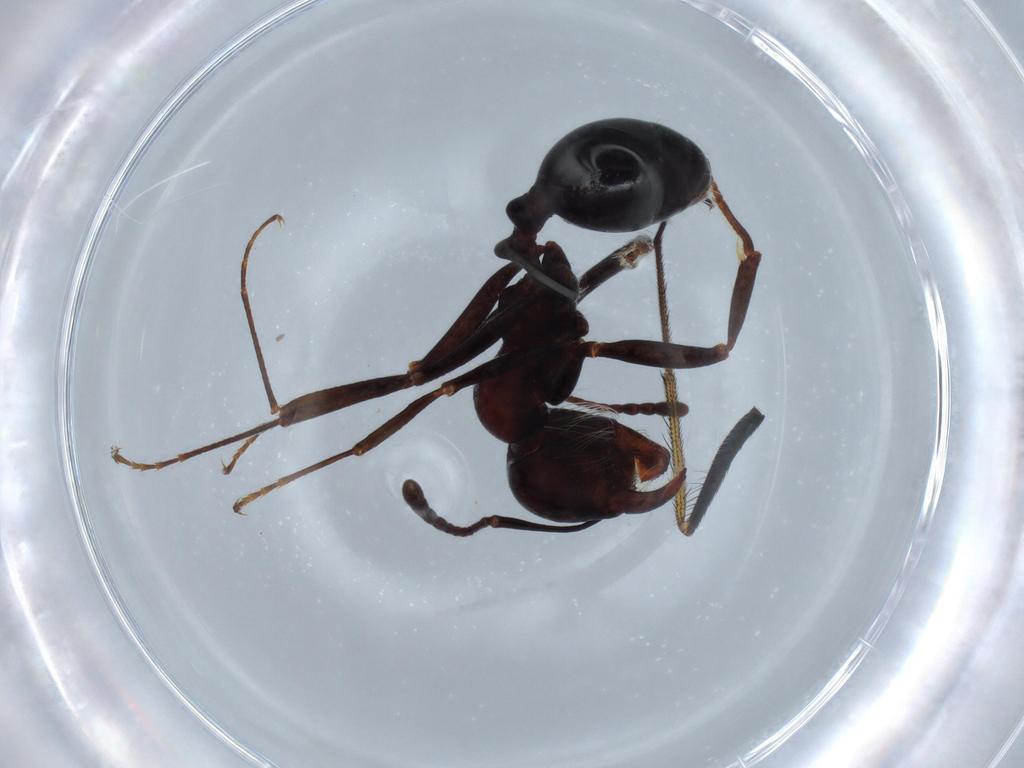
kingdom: Animalia
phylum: Arthropoda
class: Insecta
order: Hymenoptera
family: Formicidae
